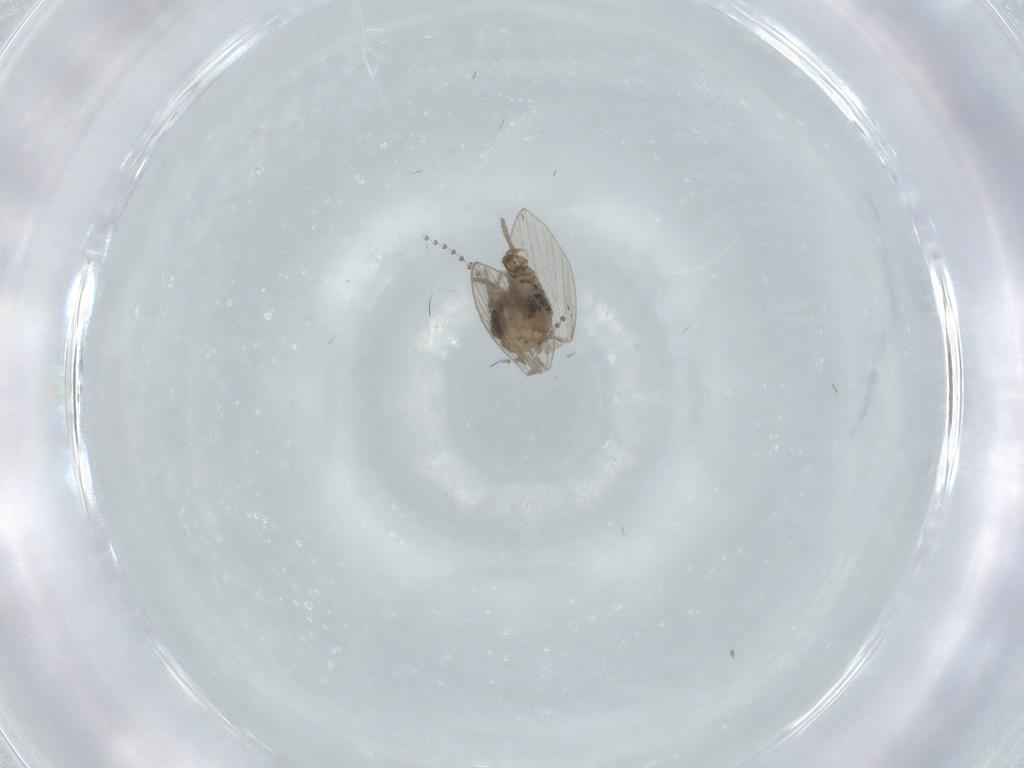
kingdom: Animalia
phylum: Arthropoda
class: Insecta
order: Diptera
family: Psychodidae
